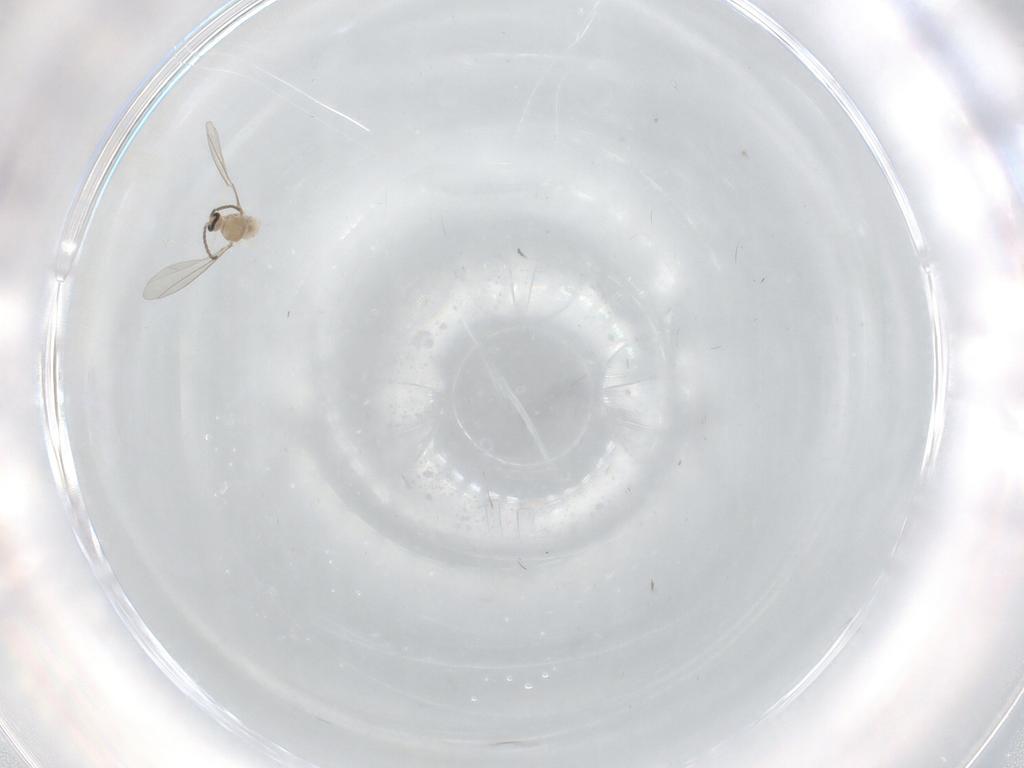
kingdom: Animalia
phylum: Arthropoda
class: Insecta
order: Diptera
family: Cecidomyiidae
